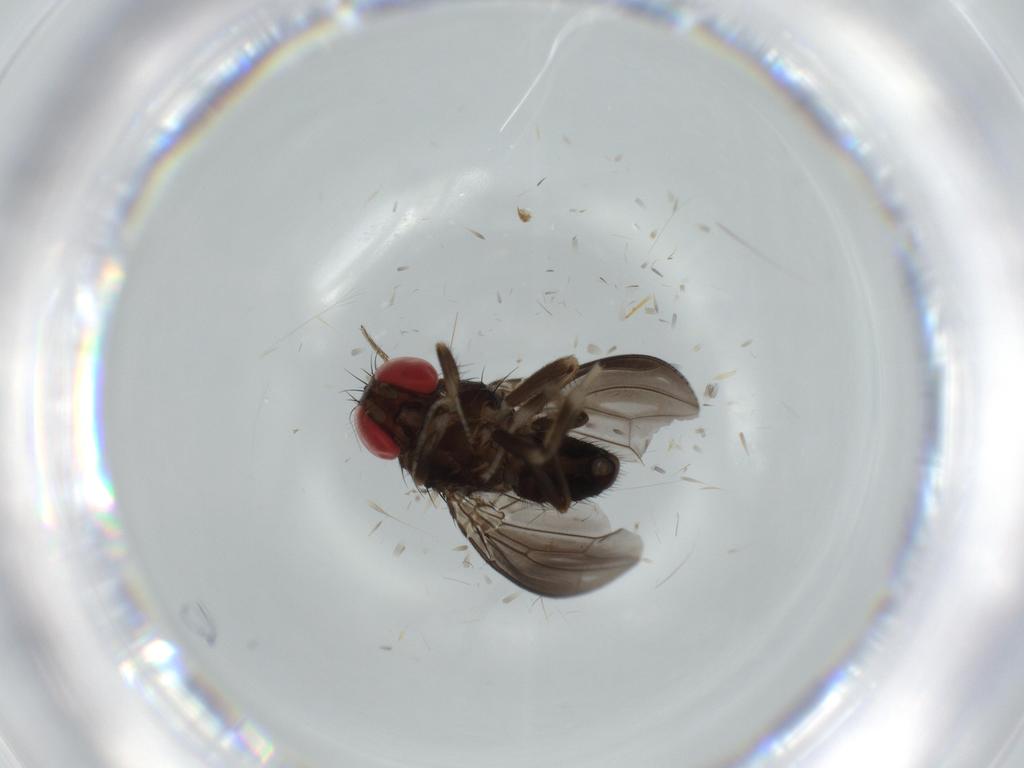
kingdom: Animalia
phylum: Arthropoda
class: Insecta
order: Diptera
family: Drosophilidae
